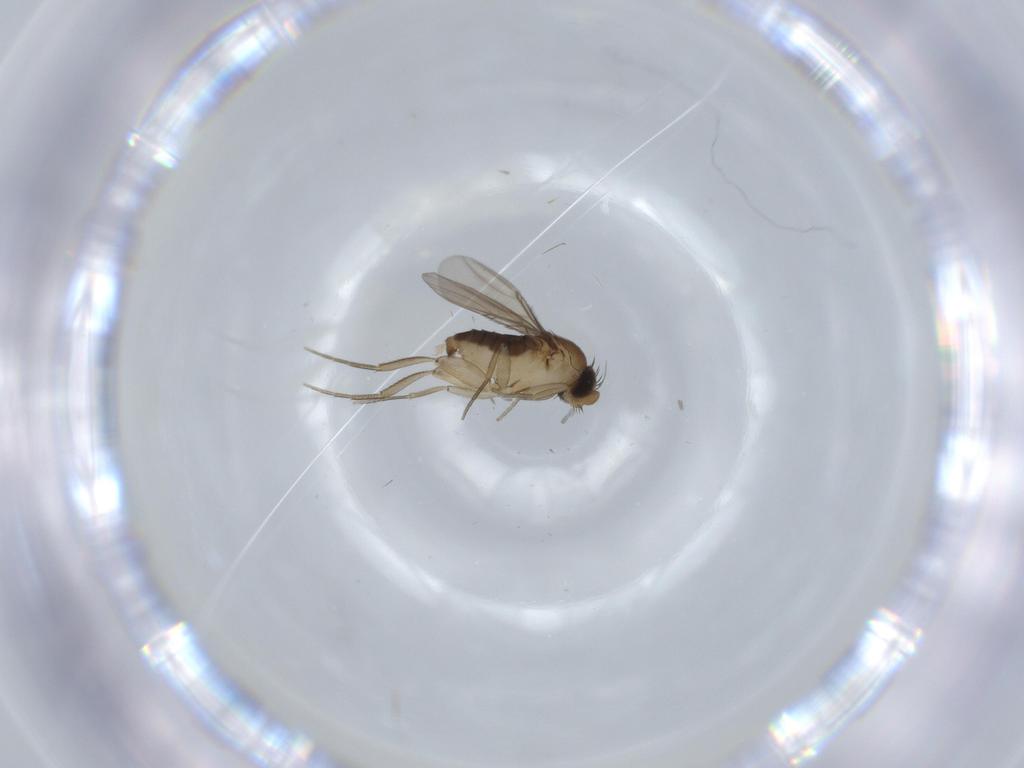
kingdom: Animalia
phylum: Arthropoda
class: Insecta
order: Diptera
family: Phoridae
